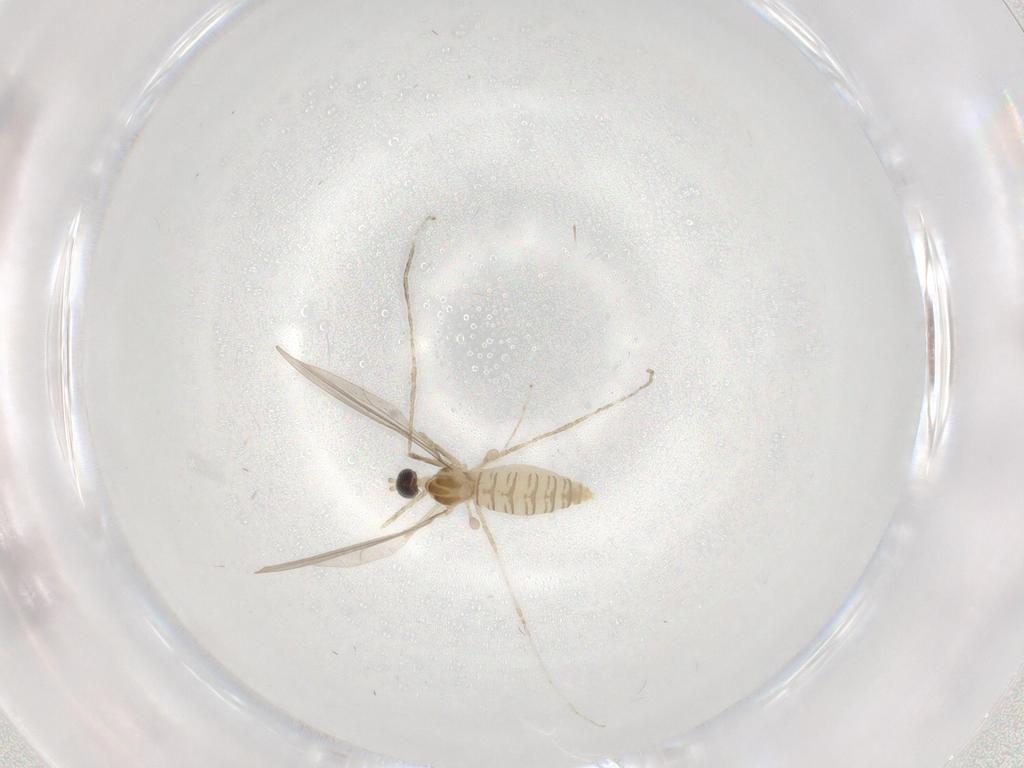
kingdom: Animalia
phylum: Arthropoda
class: Insecta
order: Diptera
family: Cecidomyiidae
